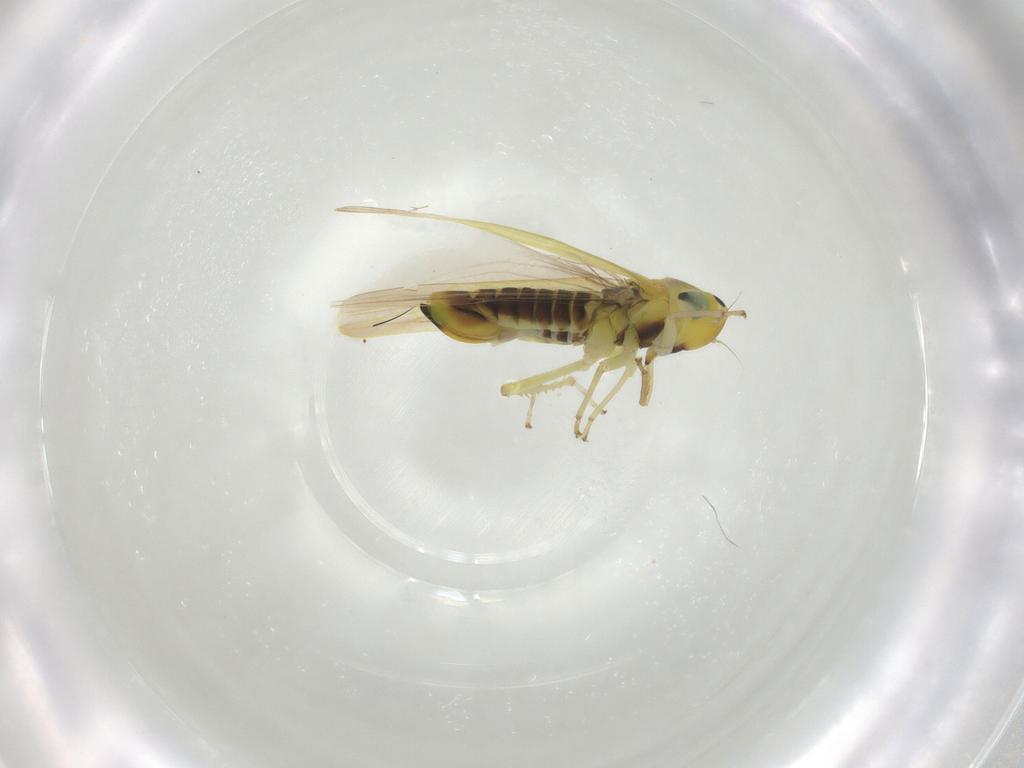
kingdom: Animalia
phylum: Arthropoda
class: Insecta
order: Hemiptera
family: Cicadellidae
